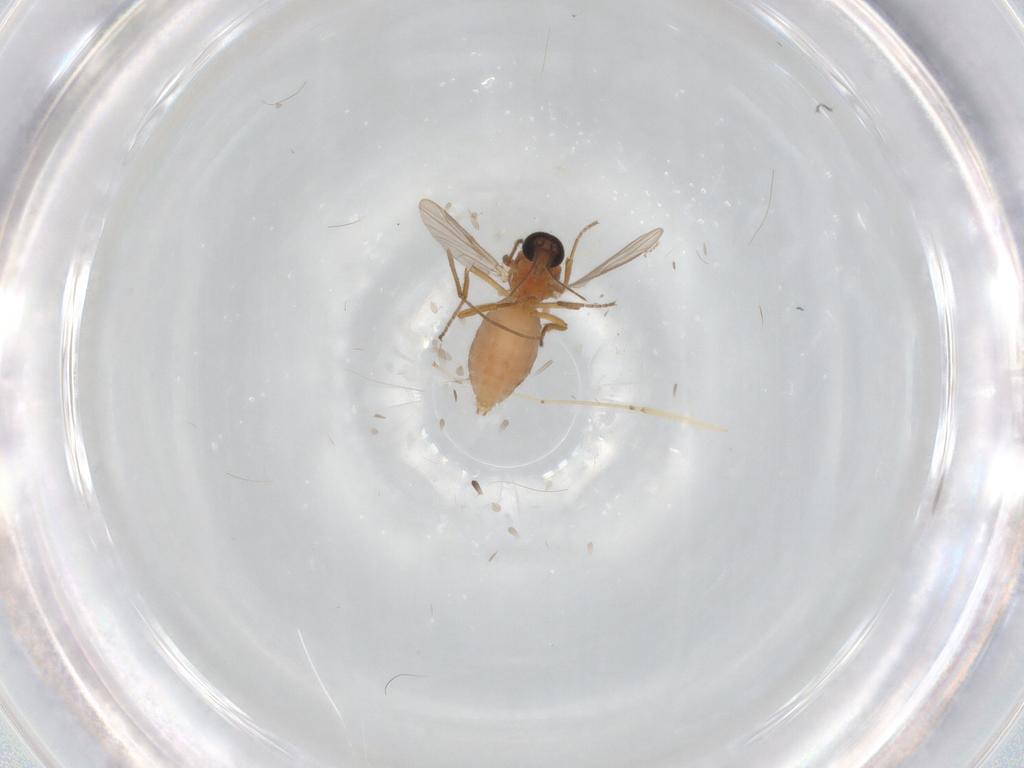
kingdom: Animalia
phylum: Arthropoda
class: Insecta
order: Diptera
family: Ceratopogonidae
